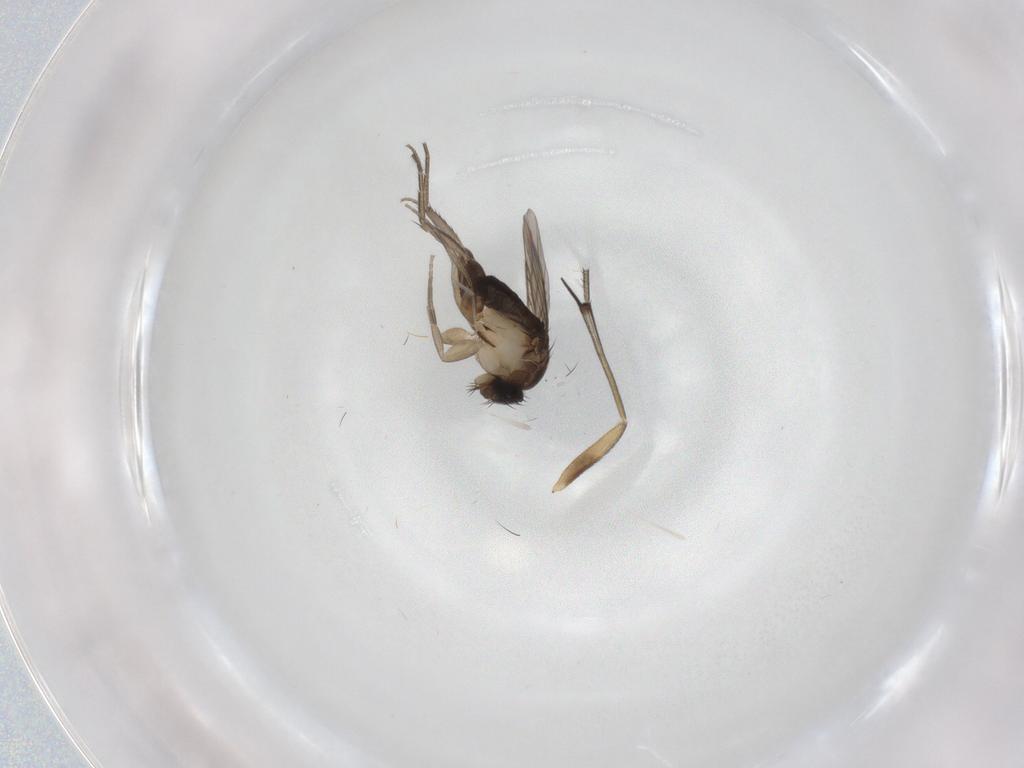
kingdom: Animalia
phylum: Arthropoda
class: Insecta
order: Diptera
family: Phoridae
